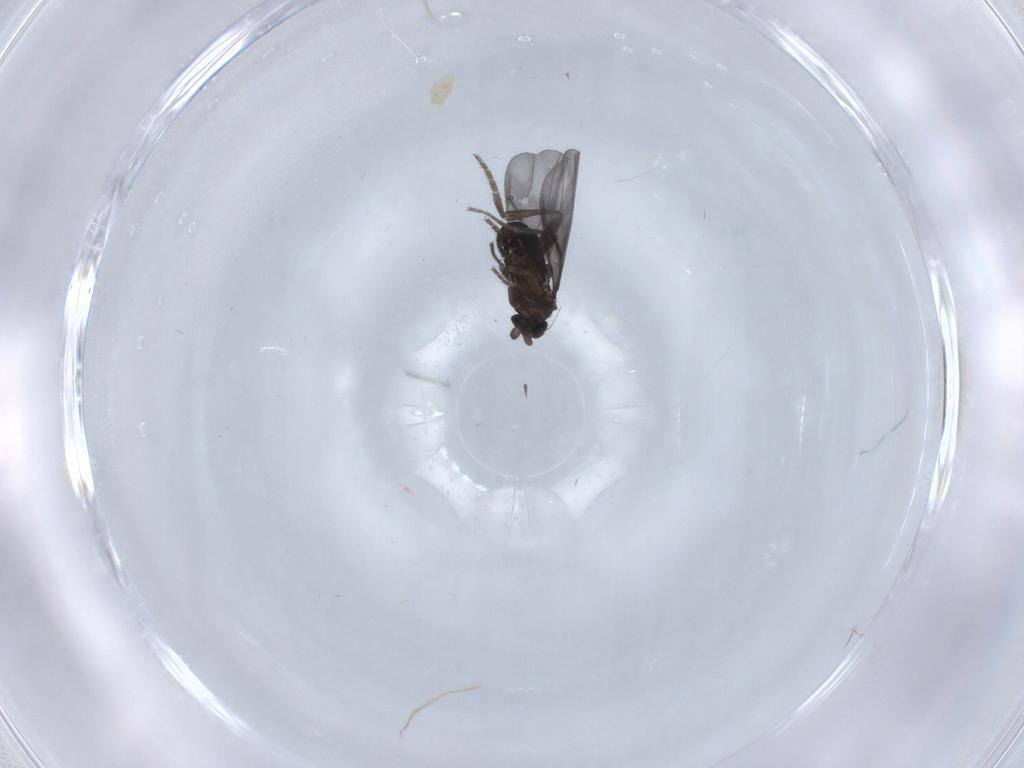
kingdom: Animalia
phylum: Arthropoda
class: Insecta
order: Diptera
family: Phoridae
